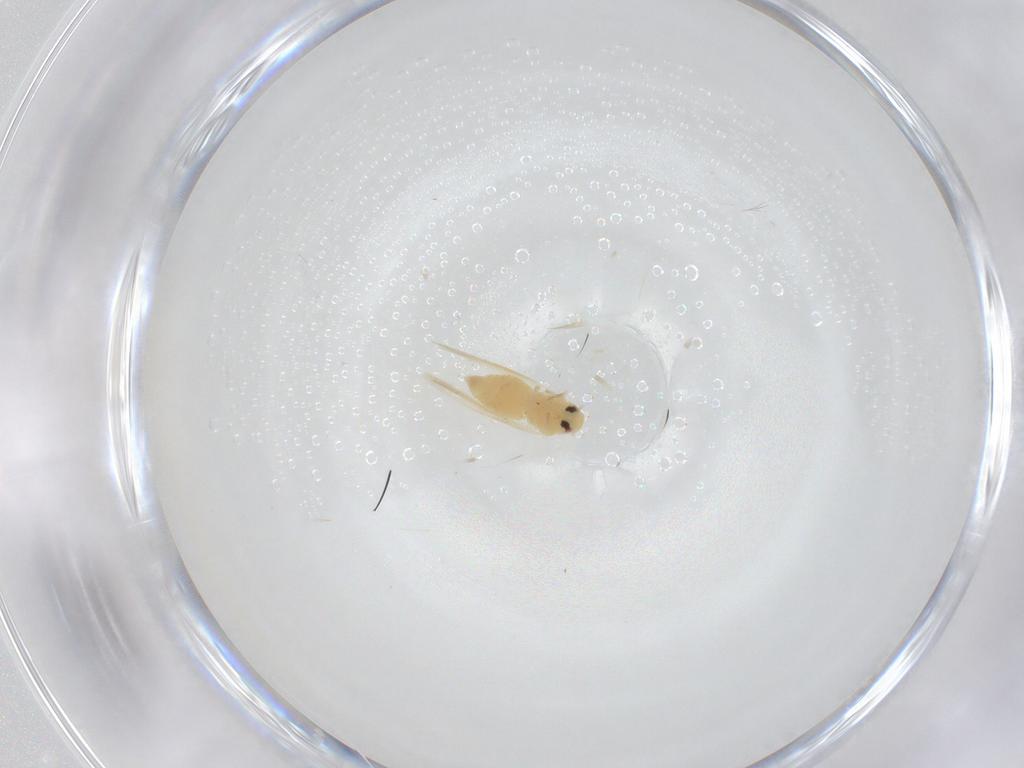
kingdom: Animalia
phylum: Arthropoda
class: Insecta
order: Hemiptera
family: Aleyrodidae
